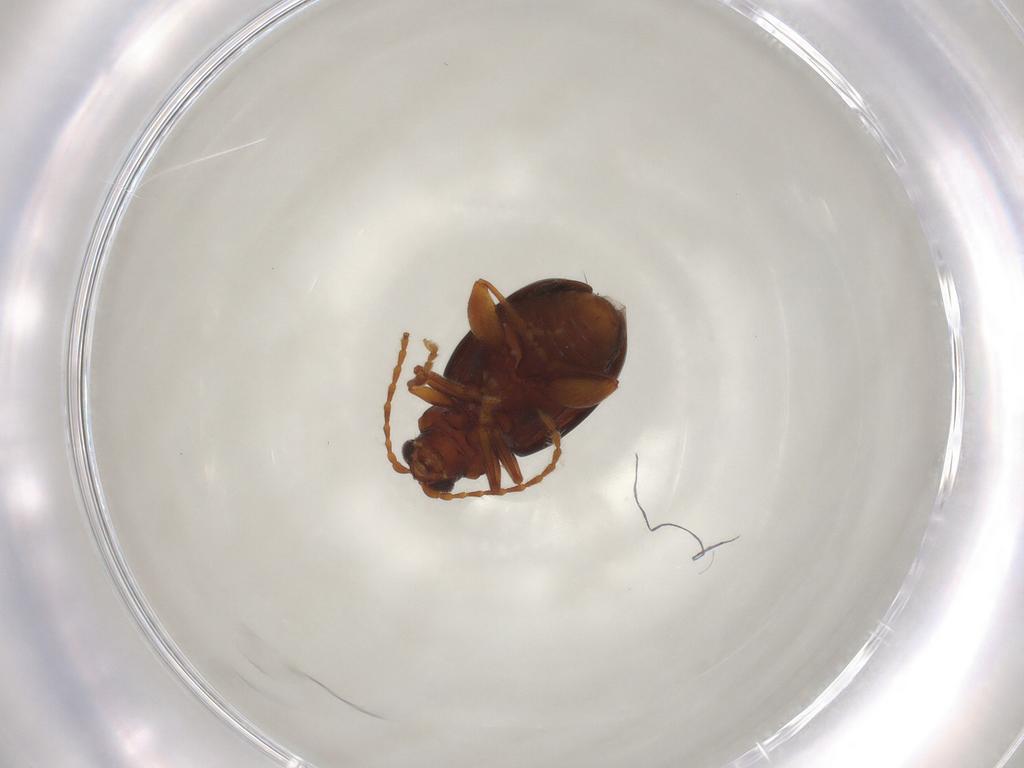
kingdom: Animalia
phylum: Arthropoda
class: Insecta
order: Coleoptera
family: Chrysomelidae
